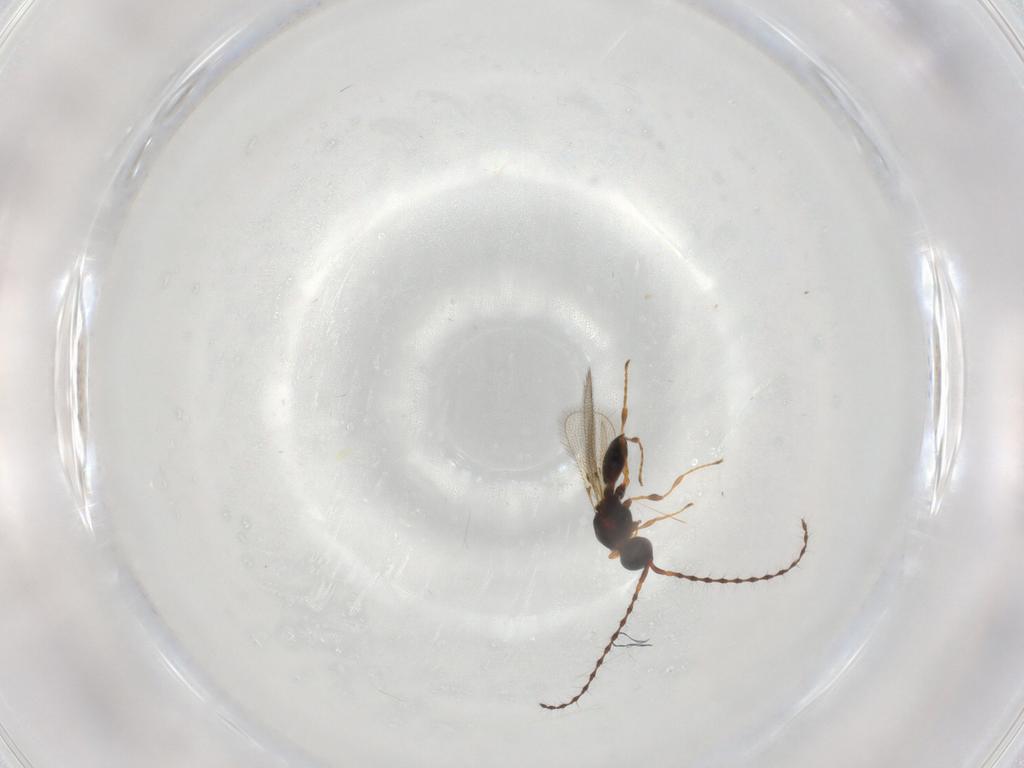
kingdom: Animalia
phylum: Arthropoda
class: Insecta
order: Hymenoptera
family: Diapriidae
